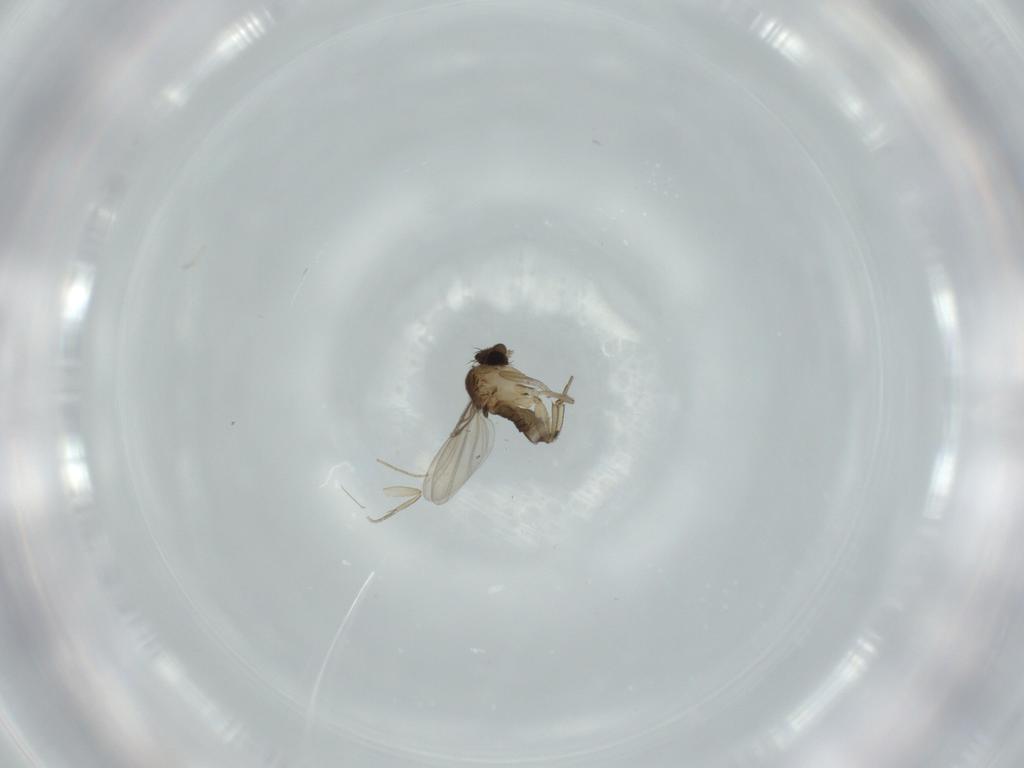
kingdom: Animalia
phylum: Arthropoda
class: Insecta
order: Diptera
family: Phoridae
